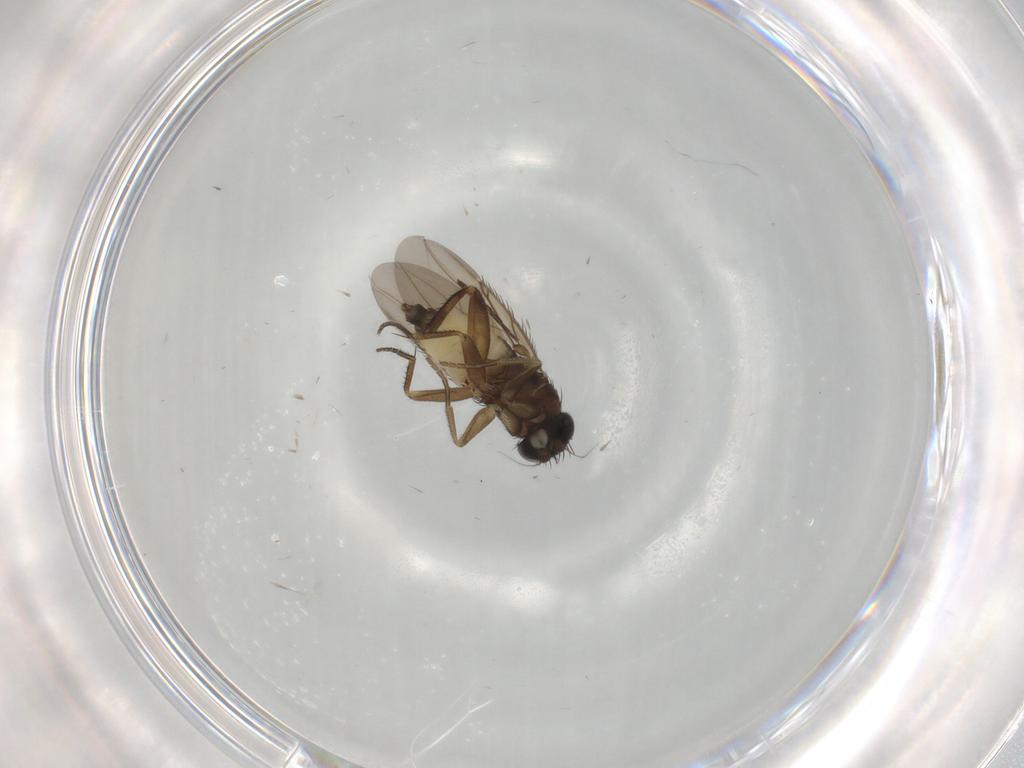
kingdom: Animalia
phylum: Arthropoda
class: Insecta
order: Diptera
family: Phoridae
